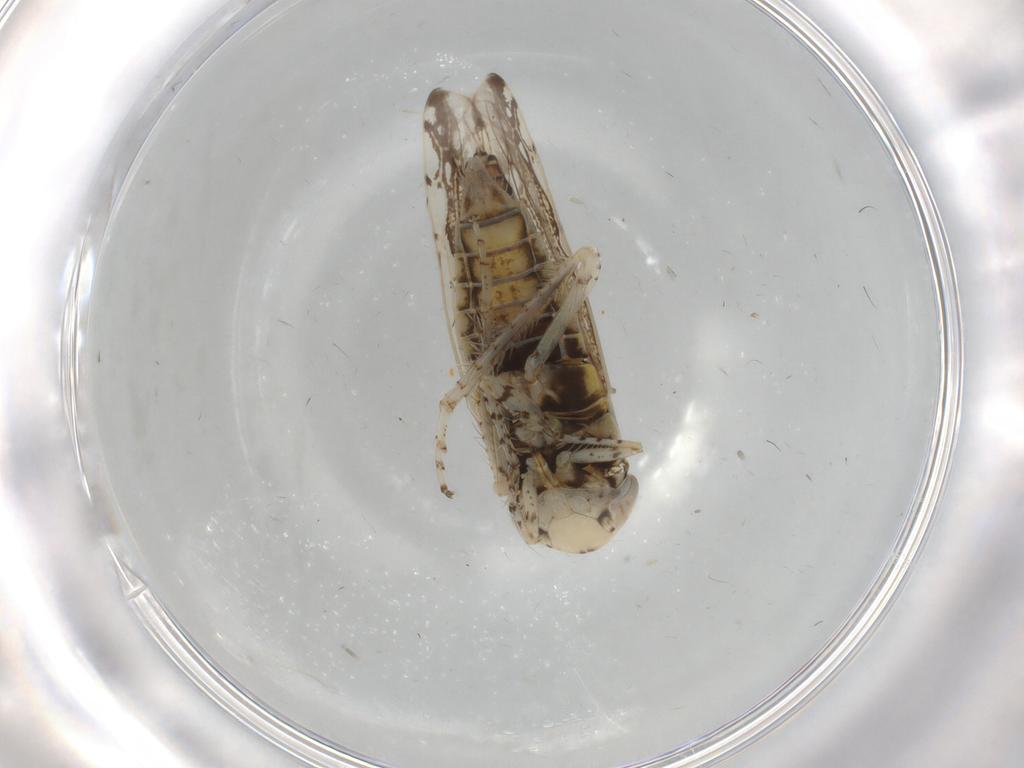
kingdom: Animalia
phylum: Arthropoda
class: Insecta
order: Hemiptera
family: Cicadellidae
